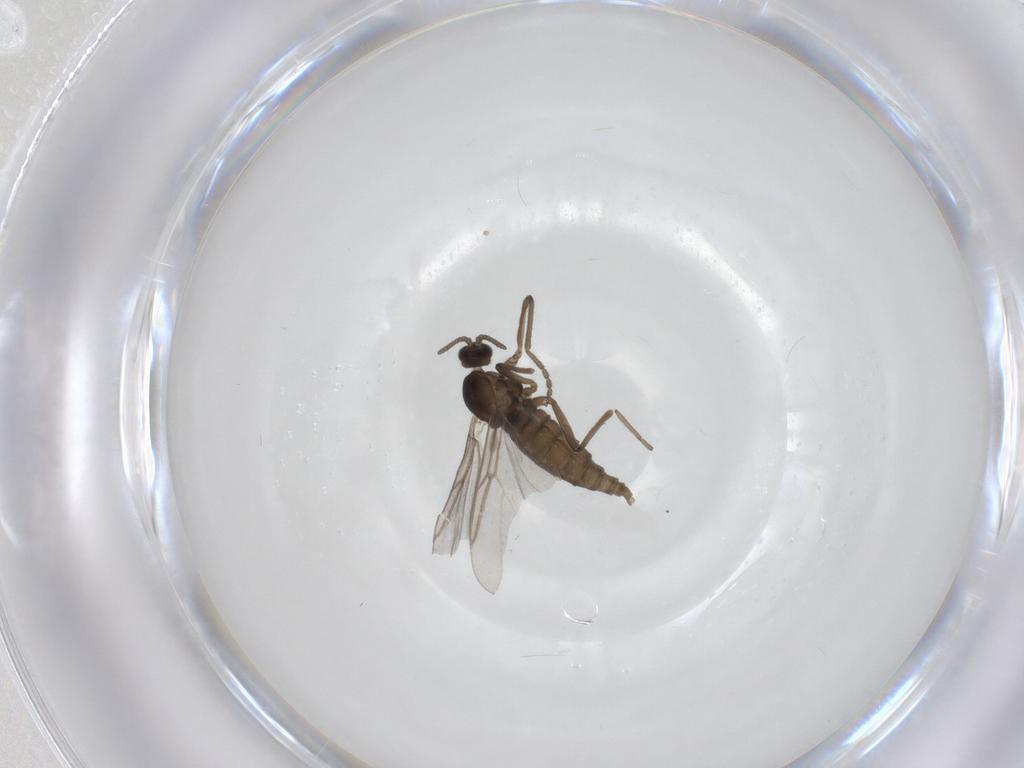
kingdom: Animalia
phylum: Arthropoda
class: Insecta
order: Diptera
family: Cecidomyiidae
